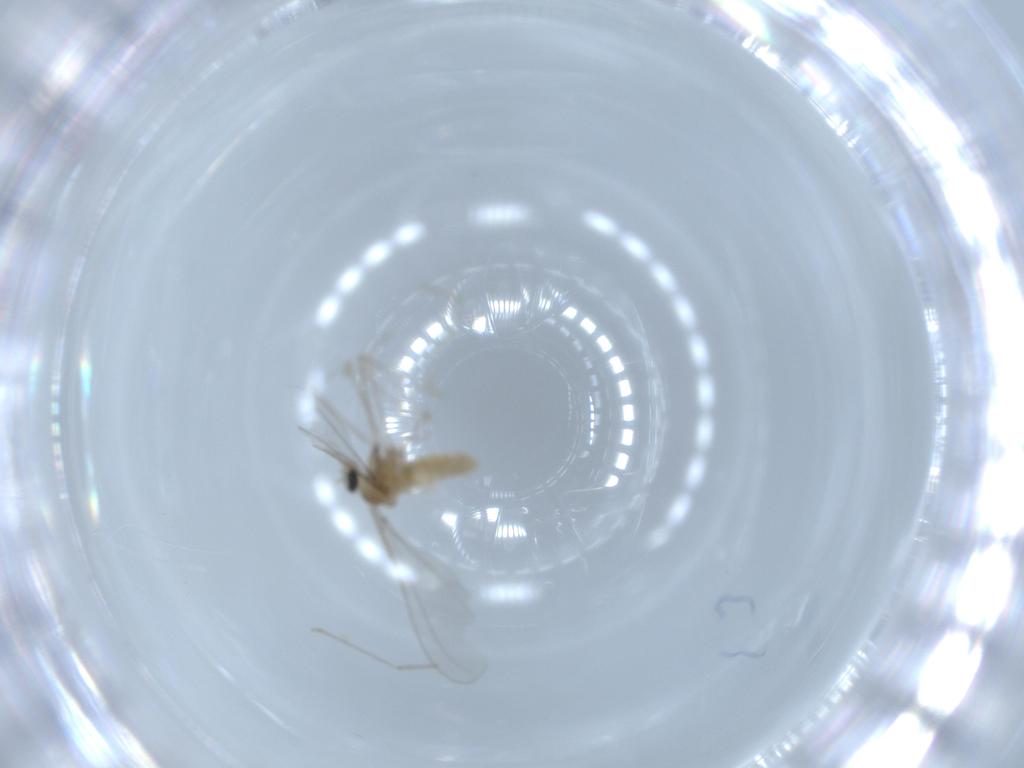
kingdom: Animalia
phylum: Arthropoda
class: Insecta
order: Diptera
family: Cecidomyiidae
